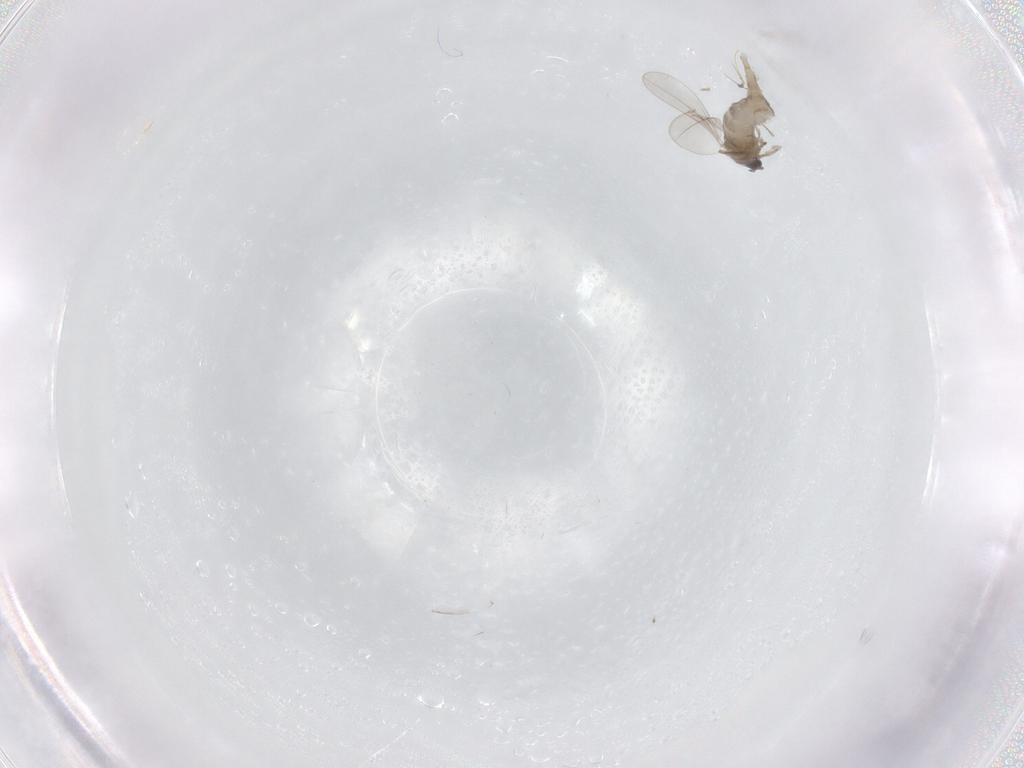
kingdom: Animalia
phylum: Arthropoda
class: Insecta
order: Diptera
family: Cecidomyiidae
